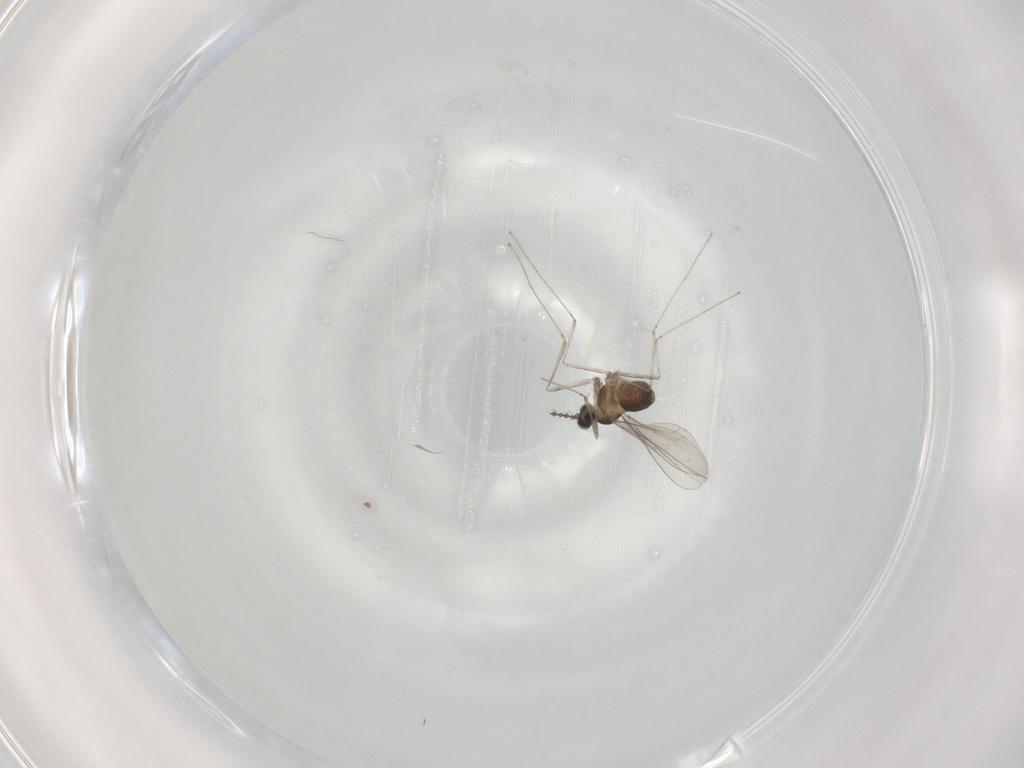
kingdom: Animalia
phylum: Arthropoda
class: Insecta
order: Diptera
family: Cecidomyiidae
